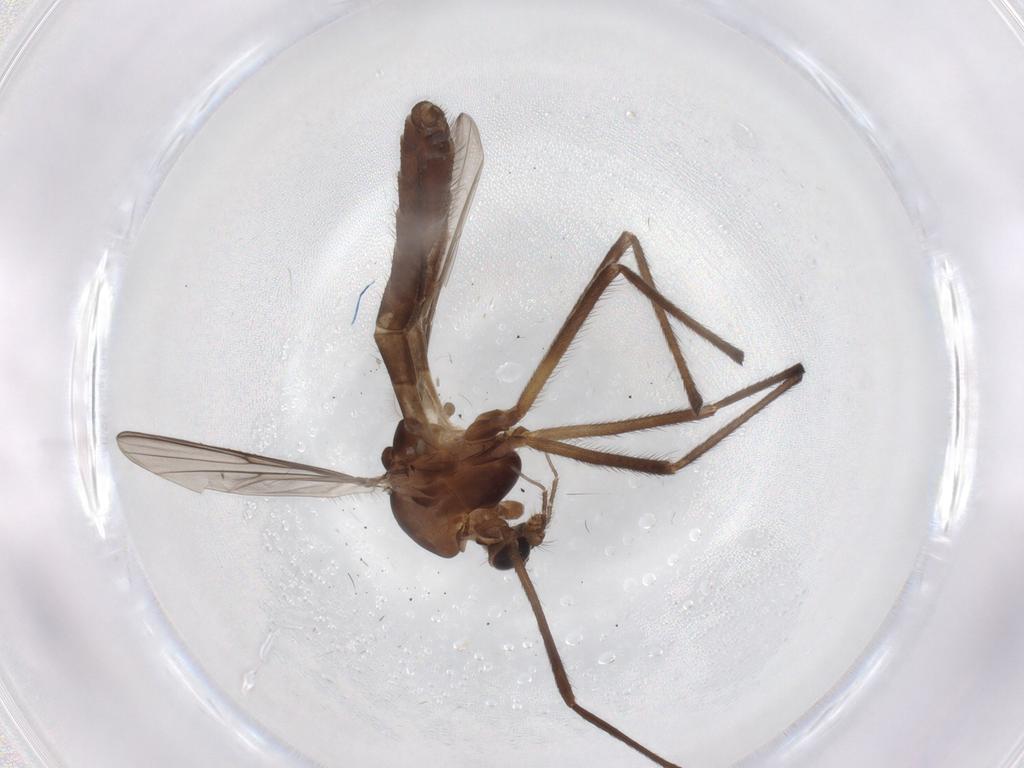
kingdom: Animalia
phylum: Arthropoda
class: Insecta
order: Diptera
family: Chironomidae
